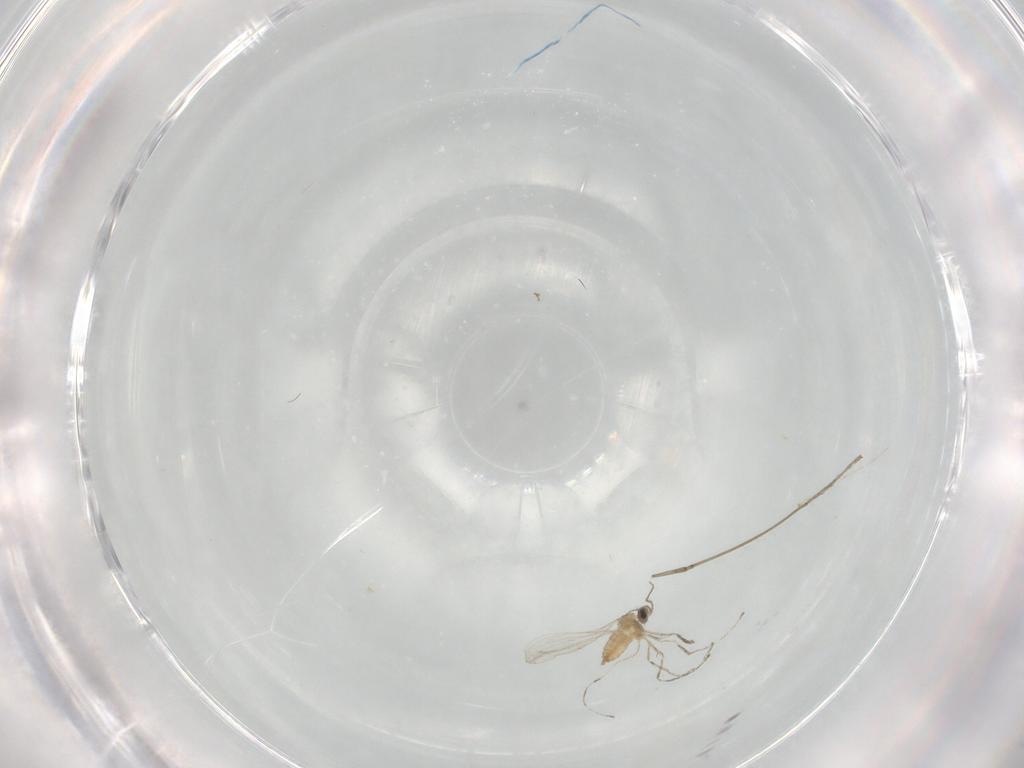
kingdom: Animalia
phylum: Arthropoda
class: Insecta
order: Diptera
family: Cecidomyiidae
